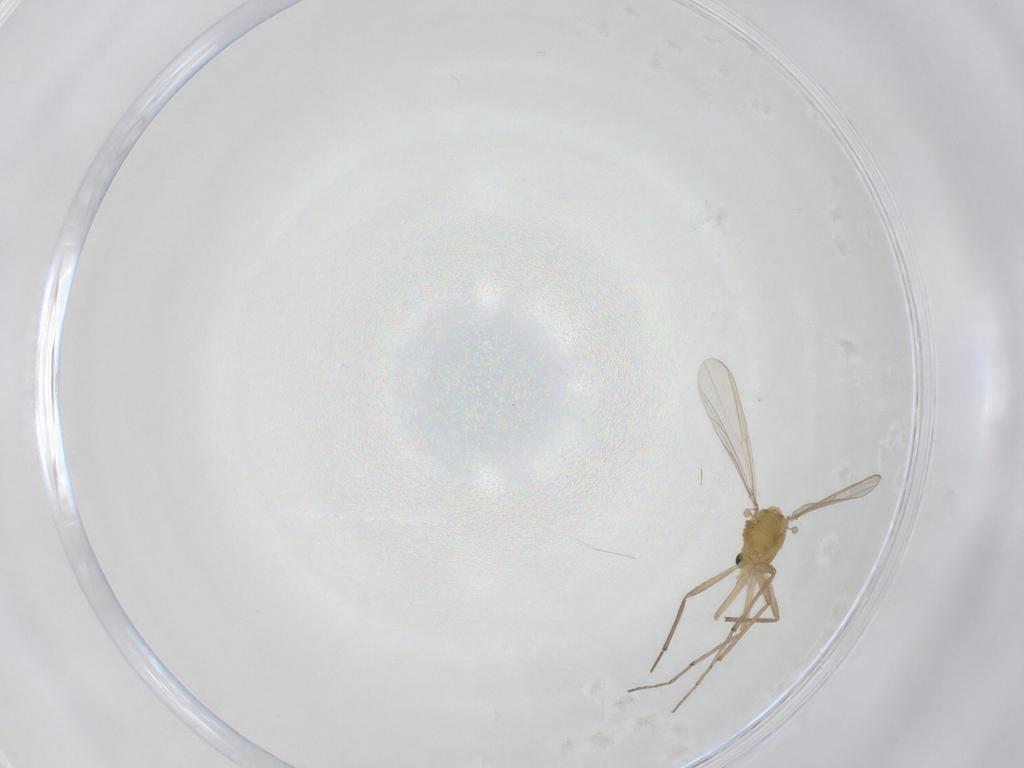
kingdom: Animalia
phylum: Arthropoda
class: Insecta
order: Diptera
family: Chironomidae
